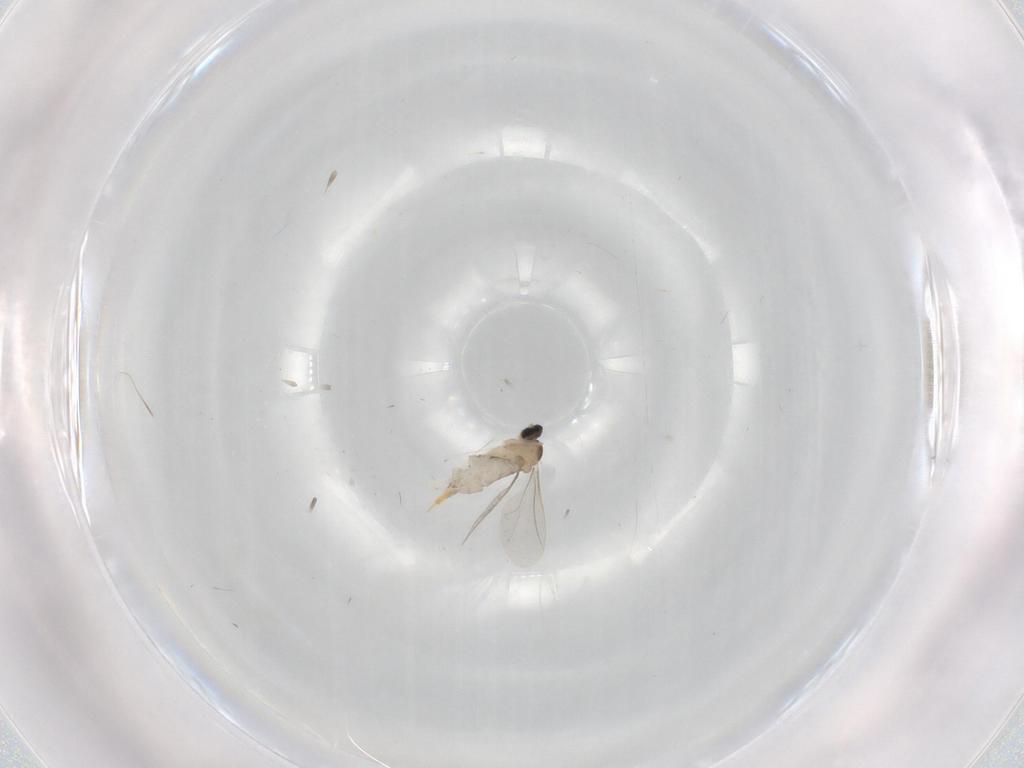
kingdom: Animalia
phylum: Arthropoda
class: Insecta
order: Diptera
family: Cecidomyiidae
